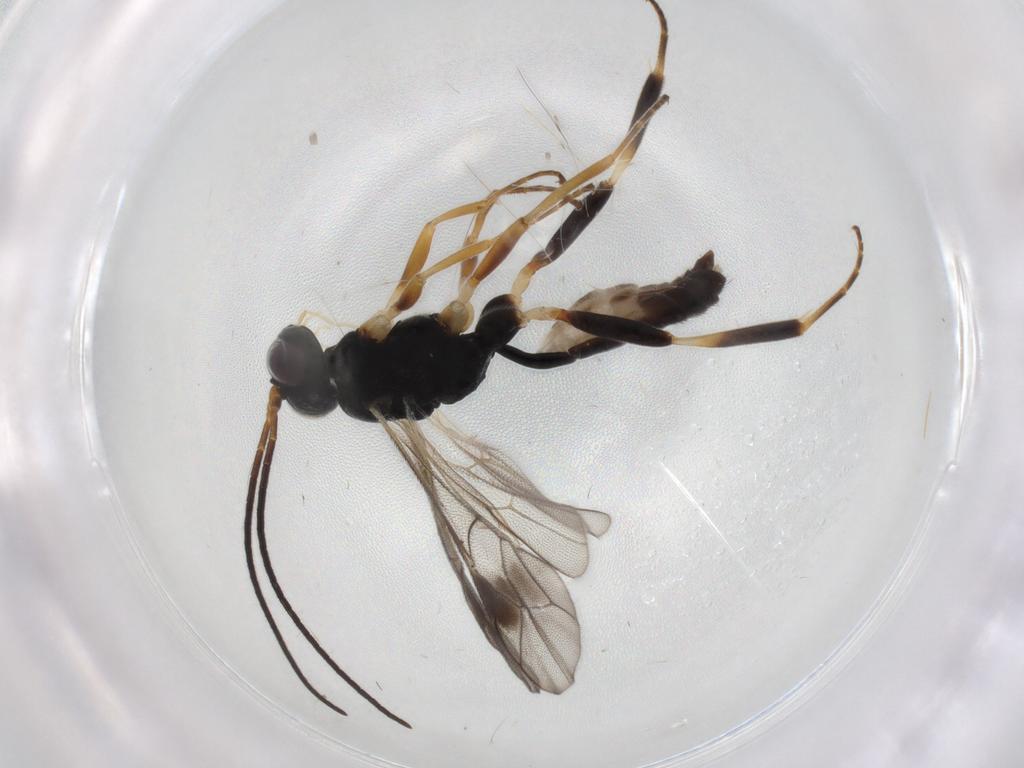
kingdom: Animalia
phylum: Arthropoda
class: Insecta
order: Hymenoptera
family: Ichneumonidae
